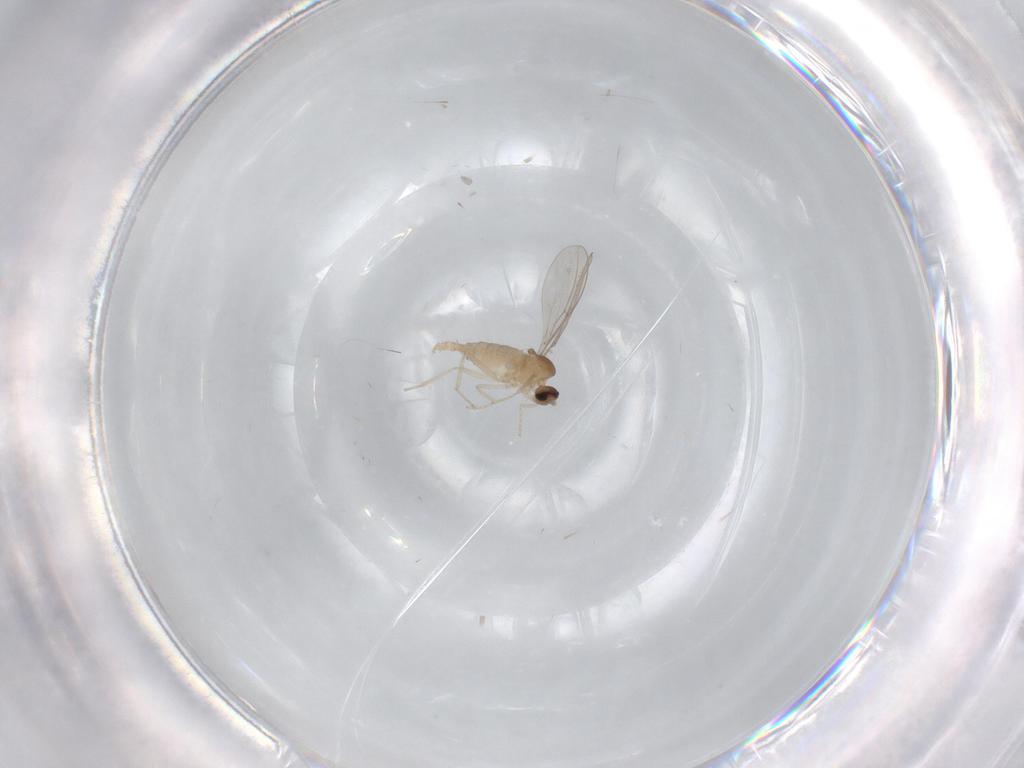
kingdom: Animalia
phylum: Arthropoda
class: Insecta
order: Diptera
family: Cecidomyiidae
